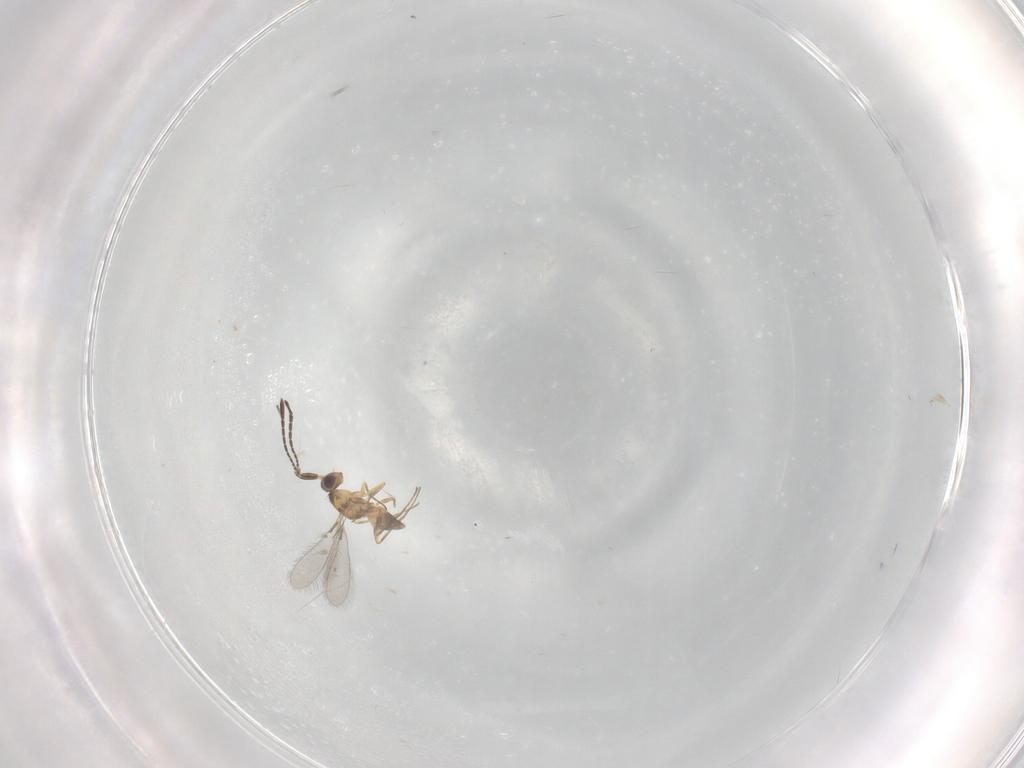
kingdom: Animalia
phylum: Arthropoda
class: Insecta
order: Hymenoptera
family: Mymaridae
